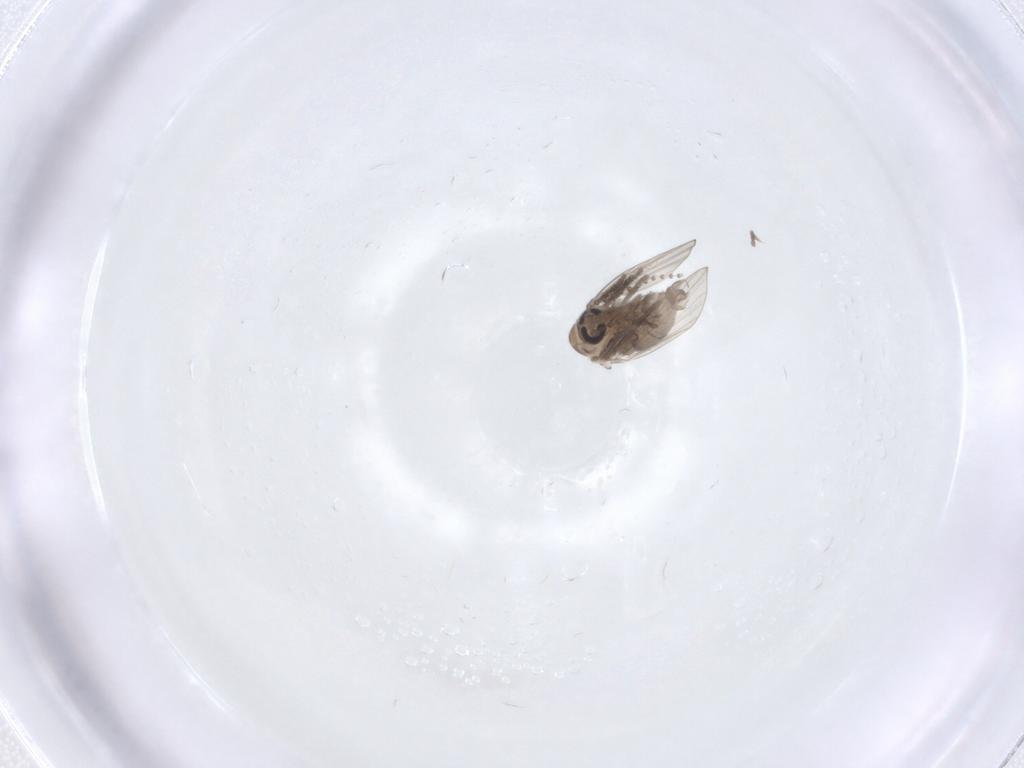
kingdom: Animalia
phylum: Arthropoda
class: Insecta
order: Diptera
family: Psychodidae
